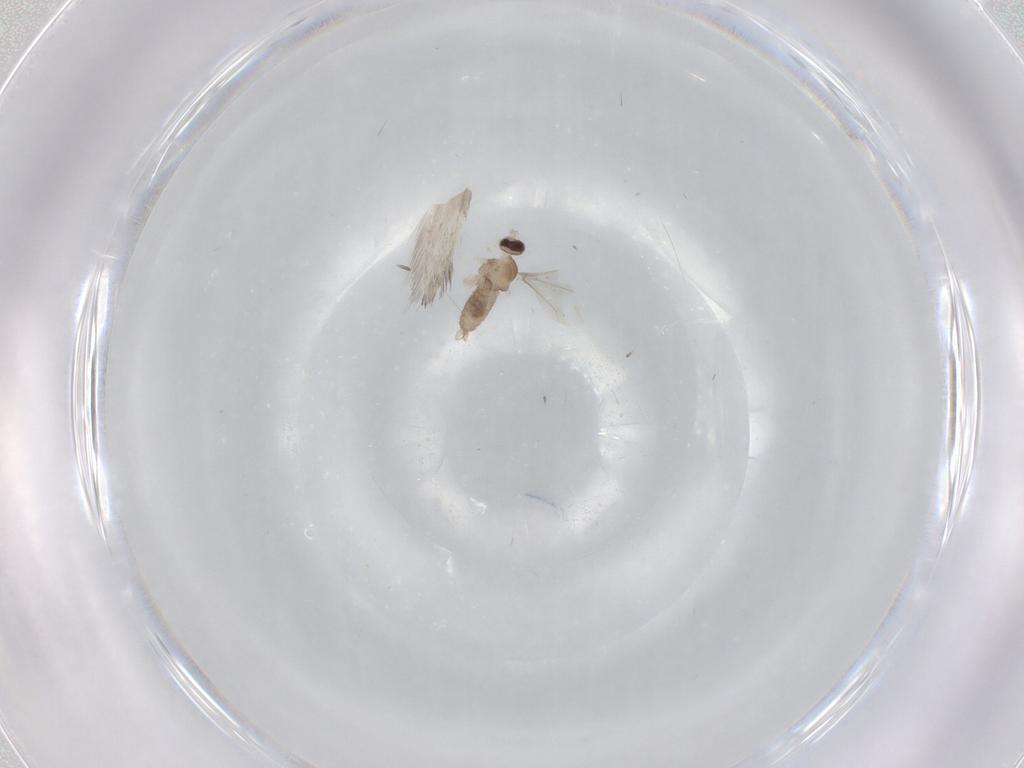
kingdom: Animalia
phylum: Arthropoda
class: Insecta
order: Diptera
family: Cecidomyiidae
